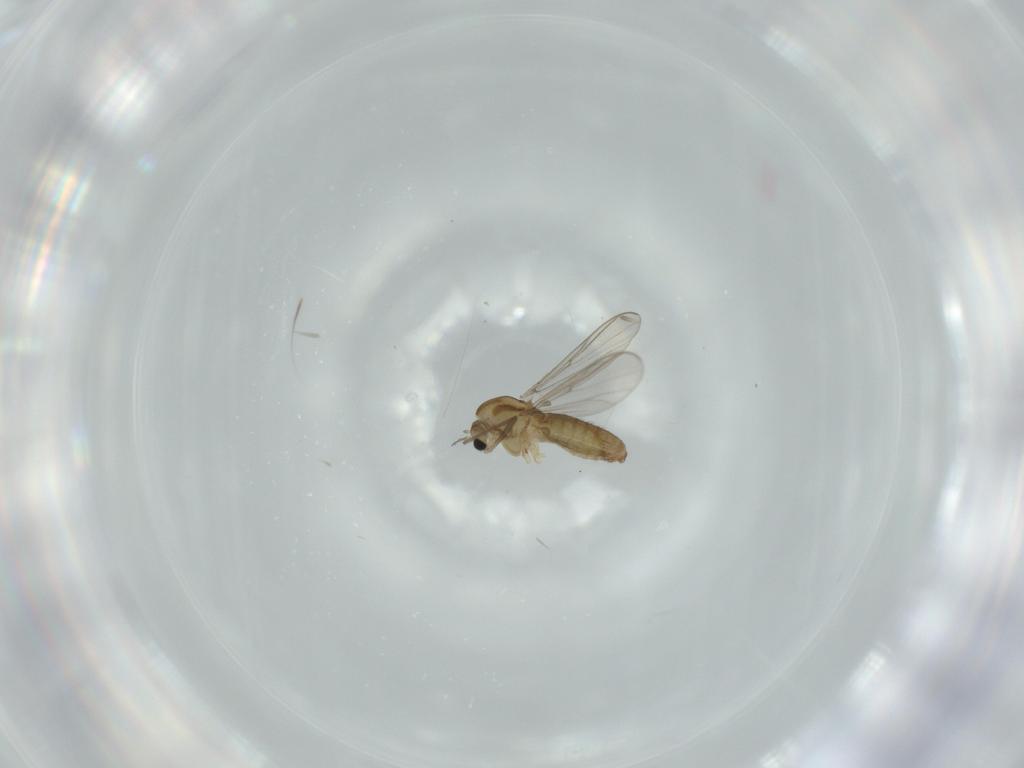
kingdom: Animalia
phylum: Arthropoda
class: Insecta
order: Diptera
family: Chironomidae
